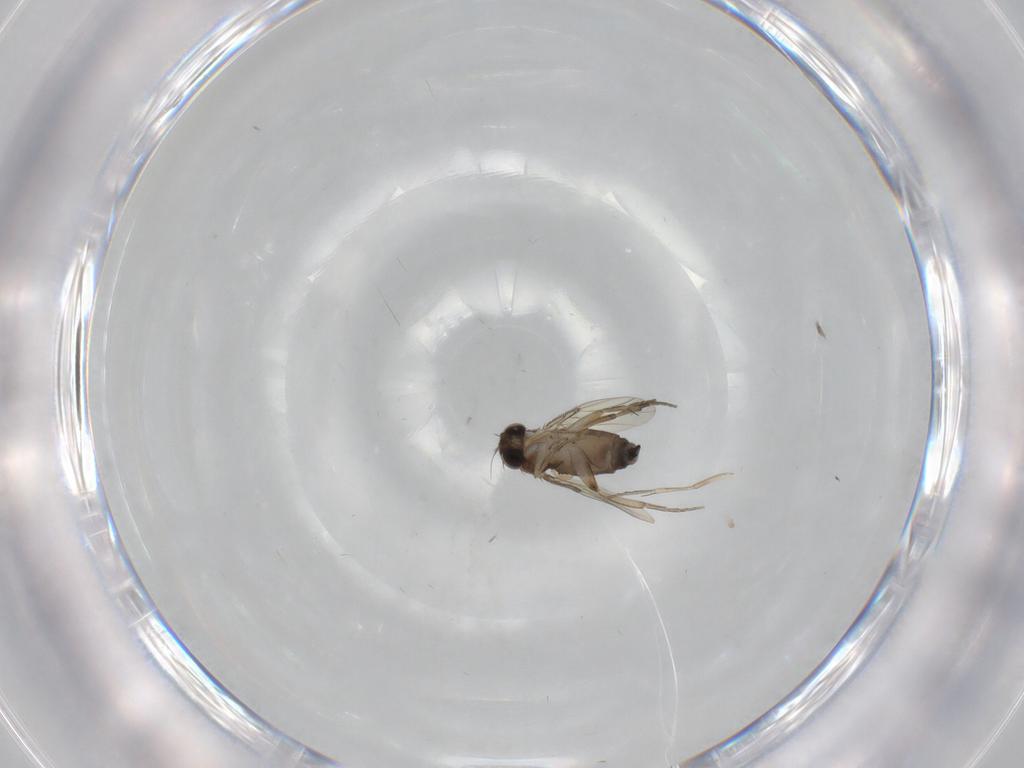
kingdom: Animalia
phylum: Arthropoda
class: Insecta
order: Diptera
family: Phoridae
